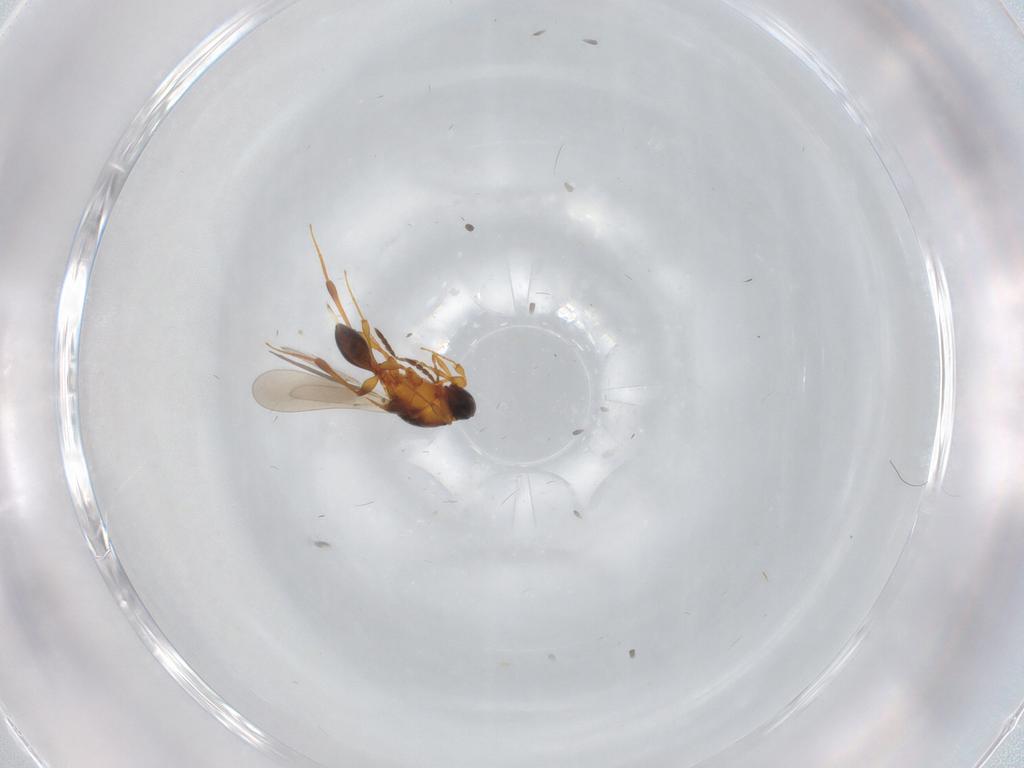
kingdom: Animalia
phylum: Arthropoda
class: Insecta
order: Hymenoptera
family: Platygastridae
